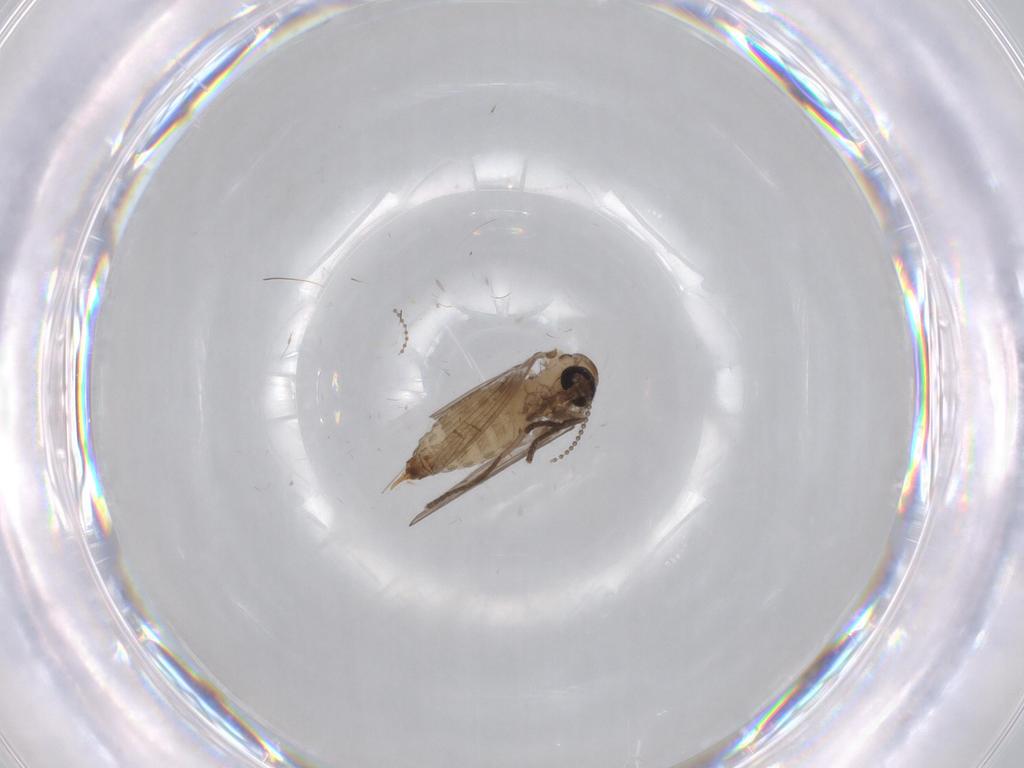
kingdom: Animalia
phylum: Arthropoda
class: Insecta
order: Diptera
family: Psychodidae
